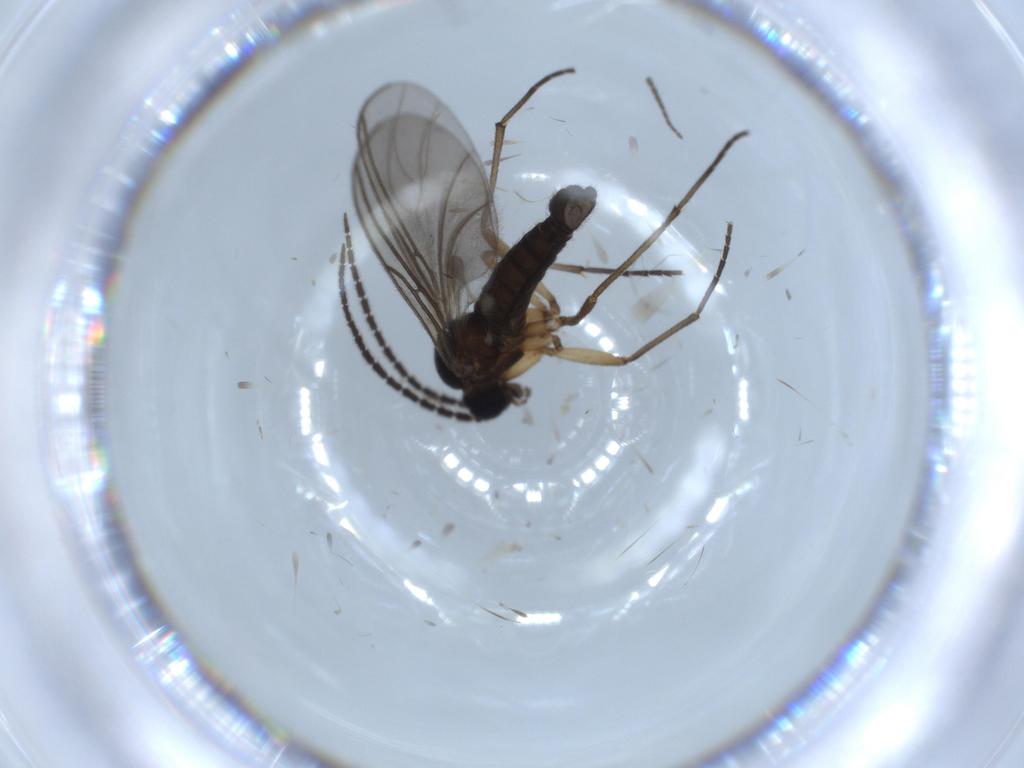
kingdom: Animalia
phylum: Arthropoda
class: Insecta
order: Diptera
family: Sciaridae
